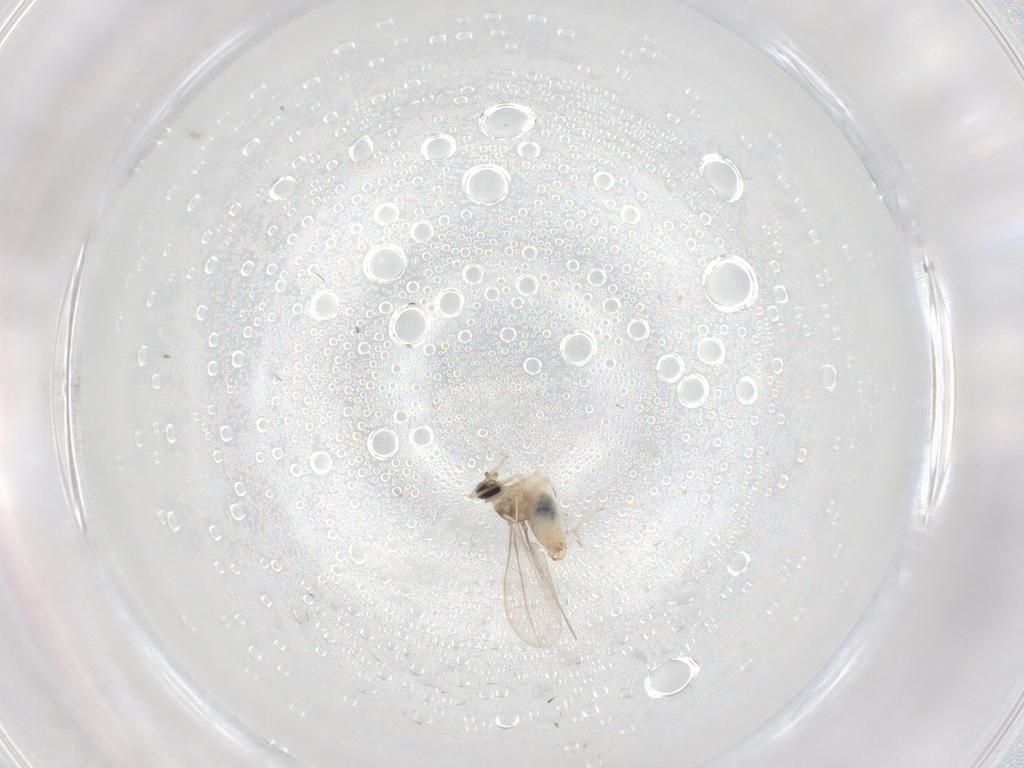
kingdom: Animalia
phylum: Arthropoda
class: Insecta
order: Diptera
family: Cecidomyiidae
